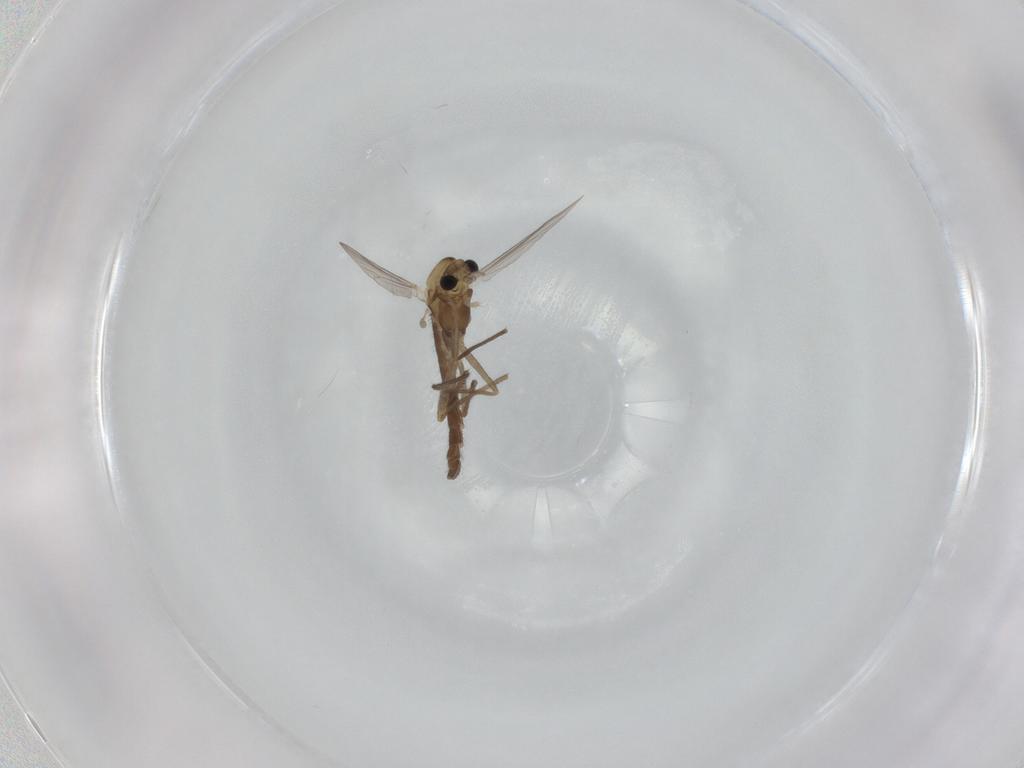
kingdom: Animalia
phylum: Arthropoda
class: Insecta
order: Diptera
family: Chironomidae
